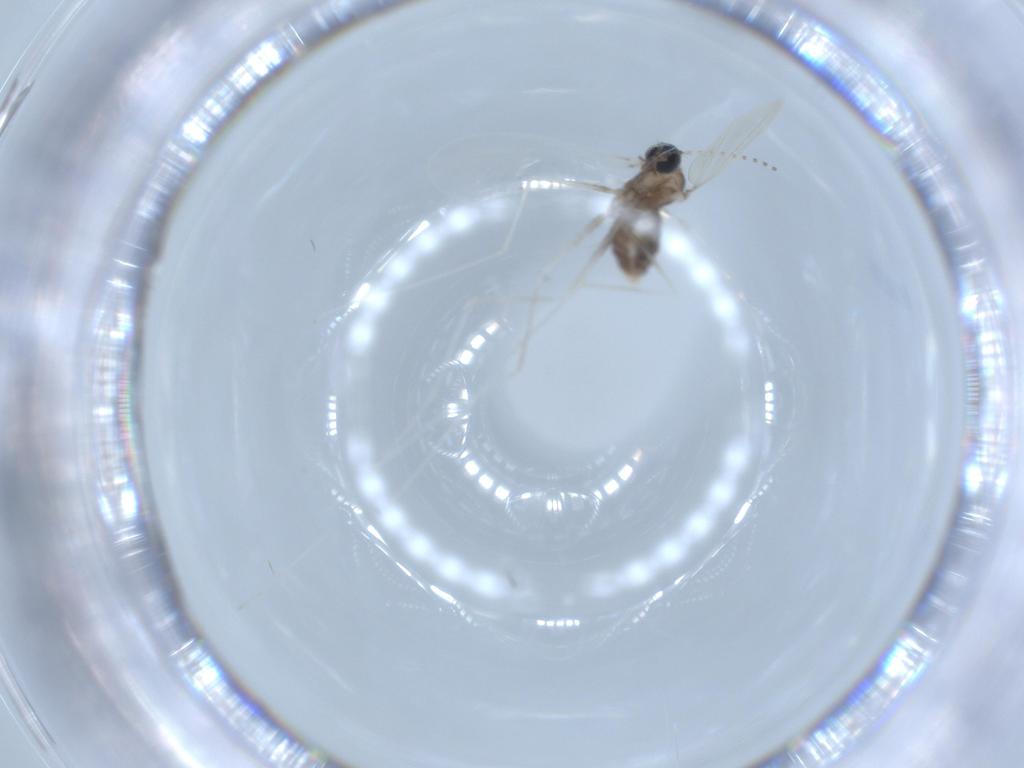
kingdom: Animalia
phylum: Arthropoda
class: Insecta
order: Diptera
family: Cecidomyiidae
